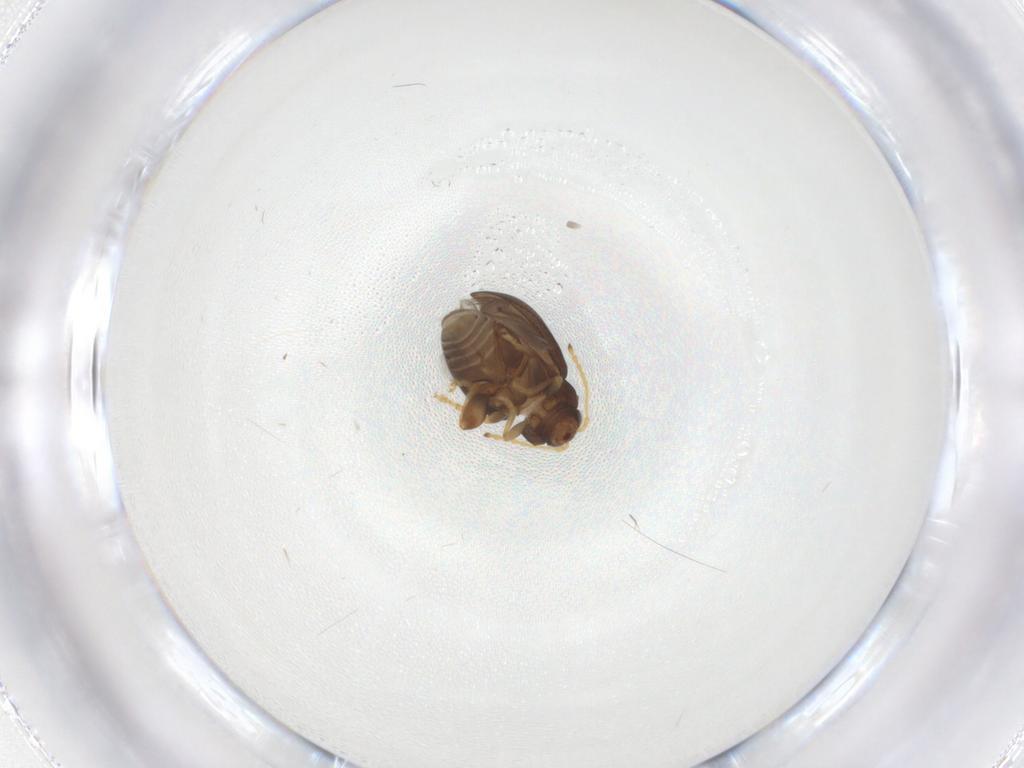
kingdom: Animalia
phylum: Arthropoda
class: Insecta
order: Coleoptera
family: Chrysomelidae
